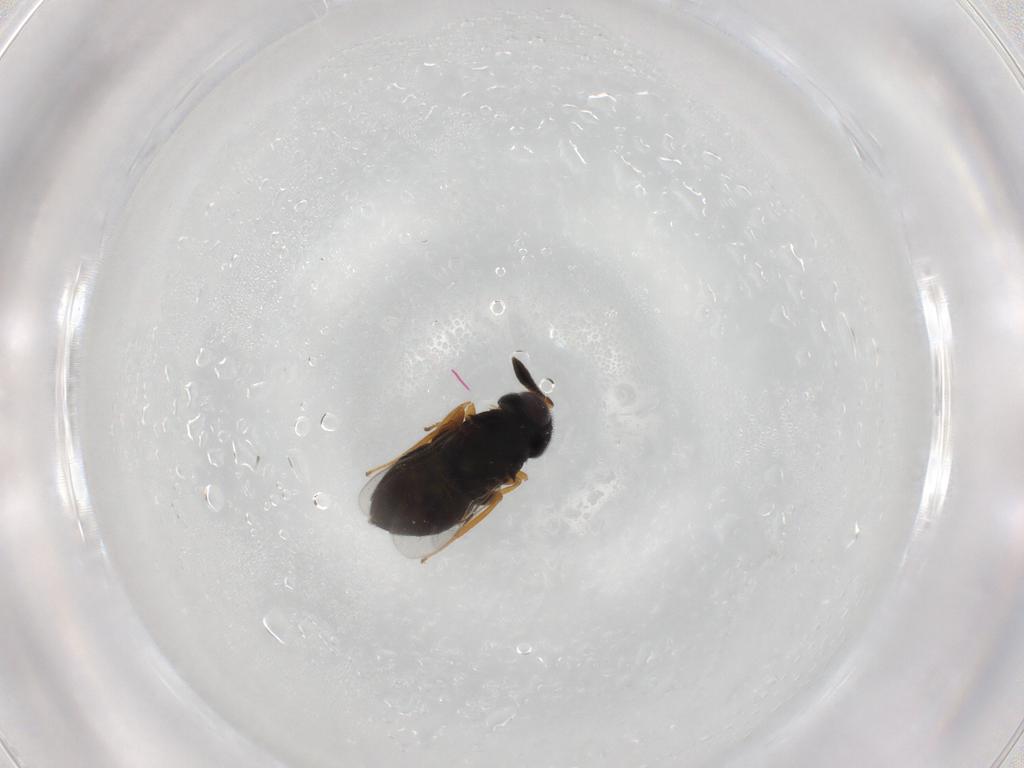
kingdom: Animalia
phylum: Arthropoda
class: Insecta
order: Hymenoptera
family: Encyrtidae
